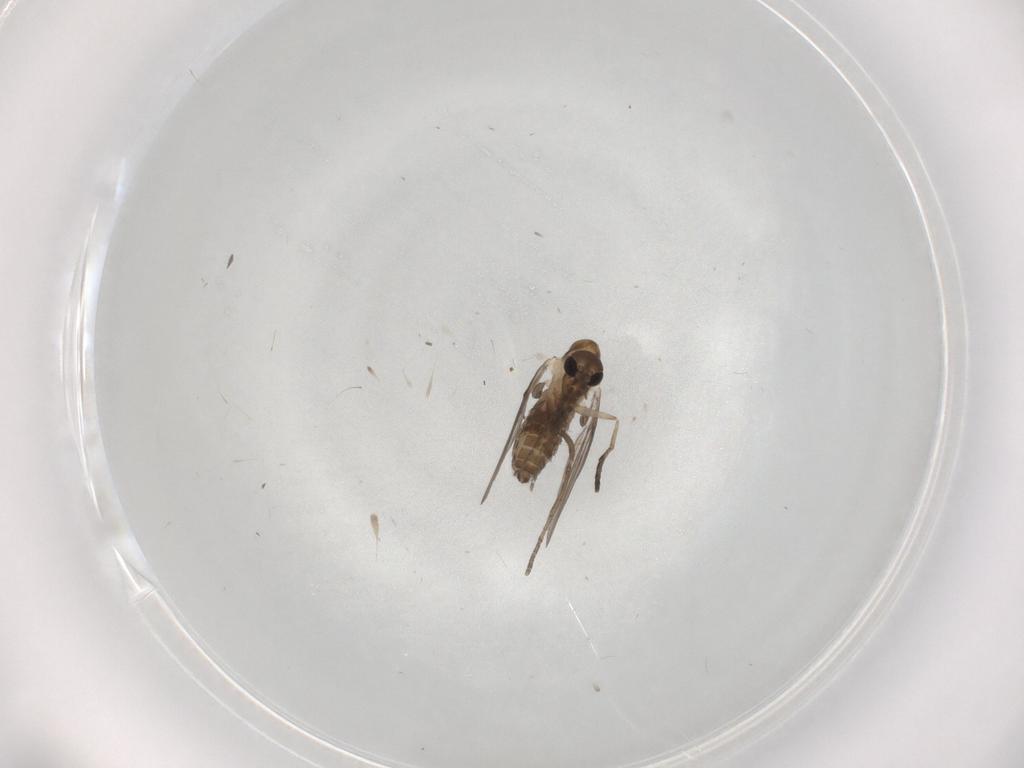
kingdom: Animalia
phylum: Arthropoda
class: Insecta
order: Diptera
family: Psychodidae
